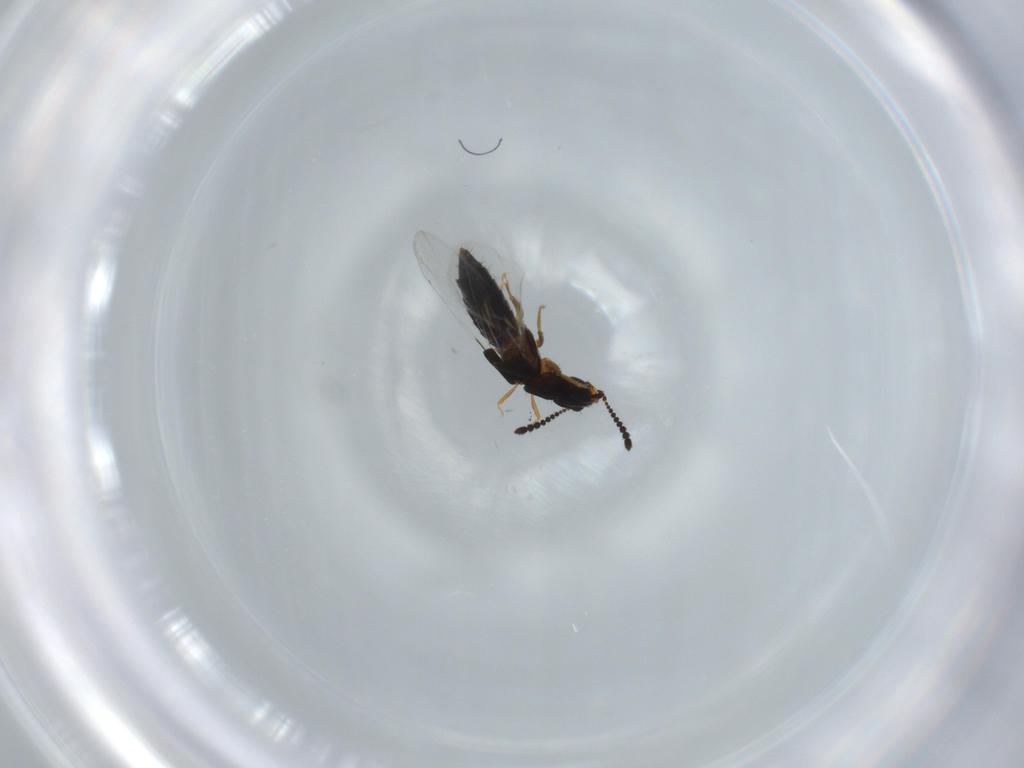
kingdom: Animalia
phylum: Arthropoda
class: Insecta
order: Coleoptera
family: Staphylinidae
